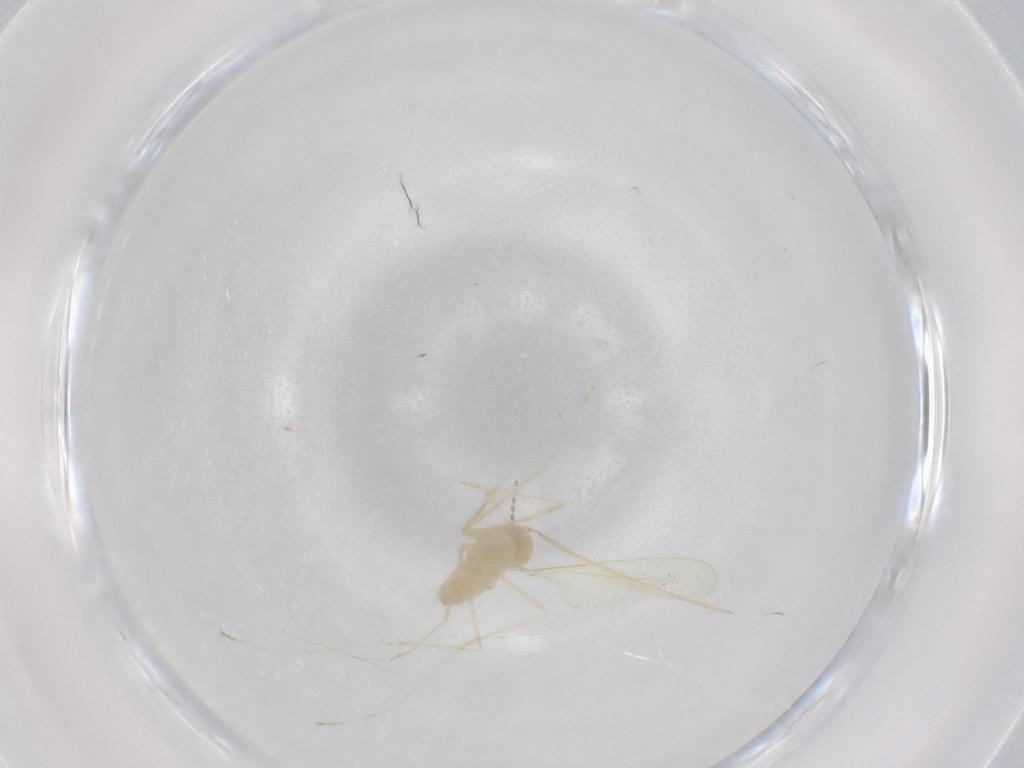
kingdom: Animalia
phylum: Arthropoda
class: Insecta
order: Diptera
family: Cecidomyiidae
